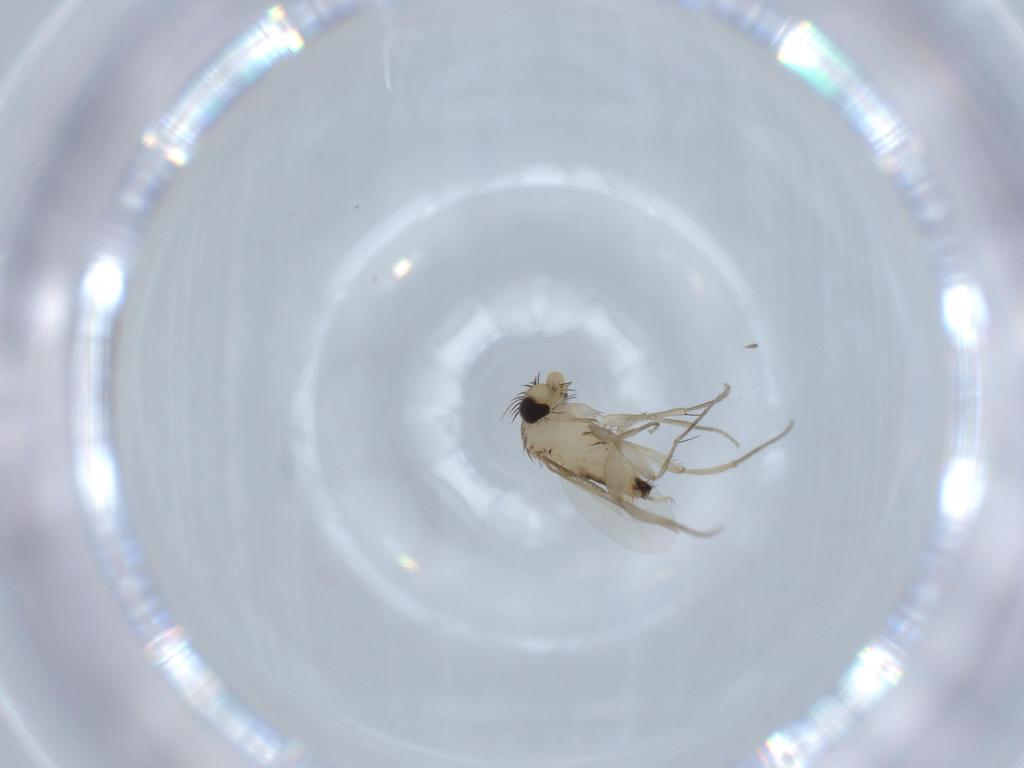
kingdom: Animalia
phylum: Arthropoda
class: Insecta
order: Diptera
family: Phoridae
